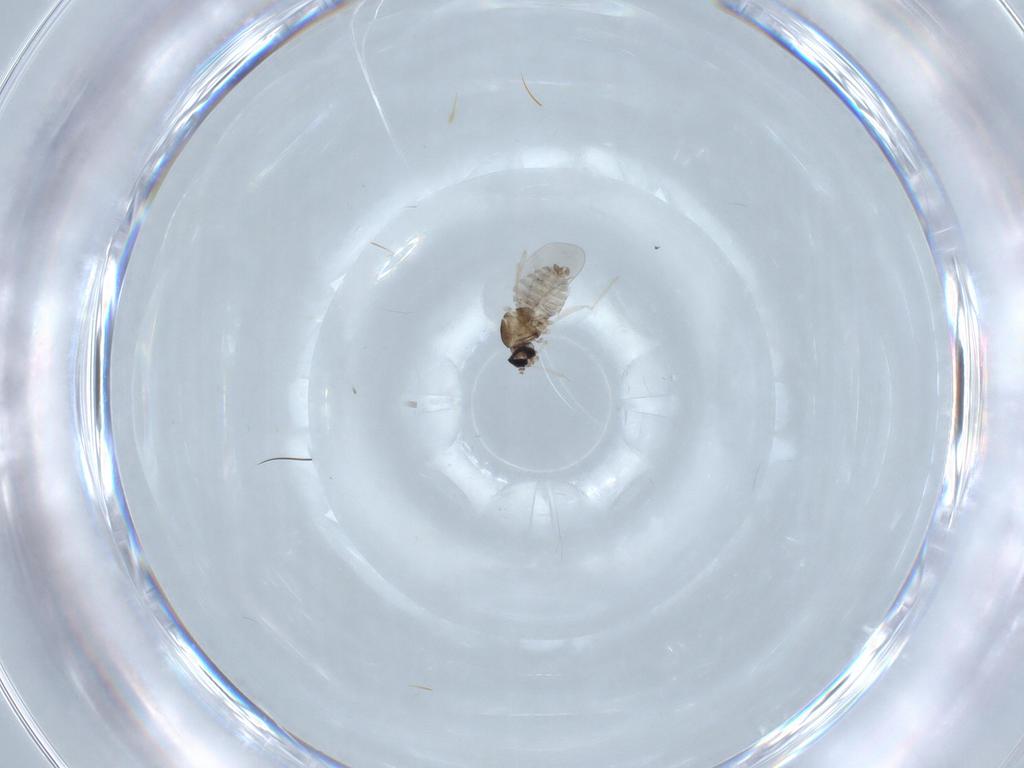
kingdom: Animalia
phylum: Arthropoda
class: Insecta
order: Diptera
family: Cecidomyiidae
